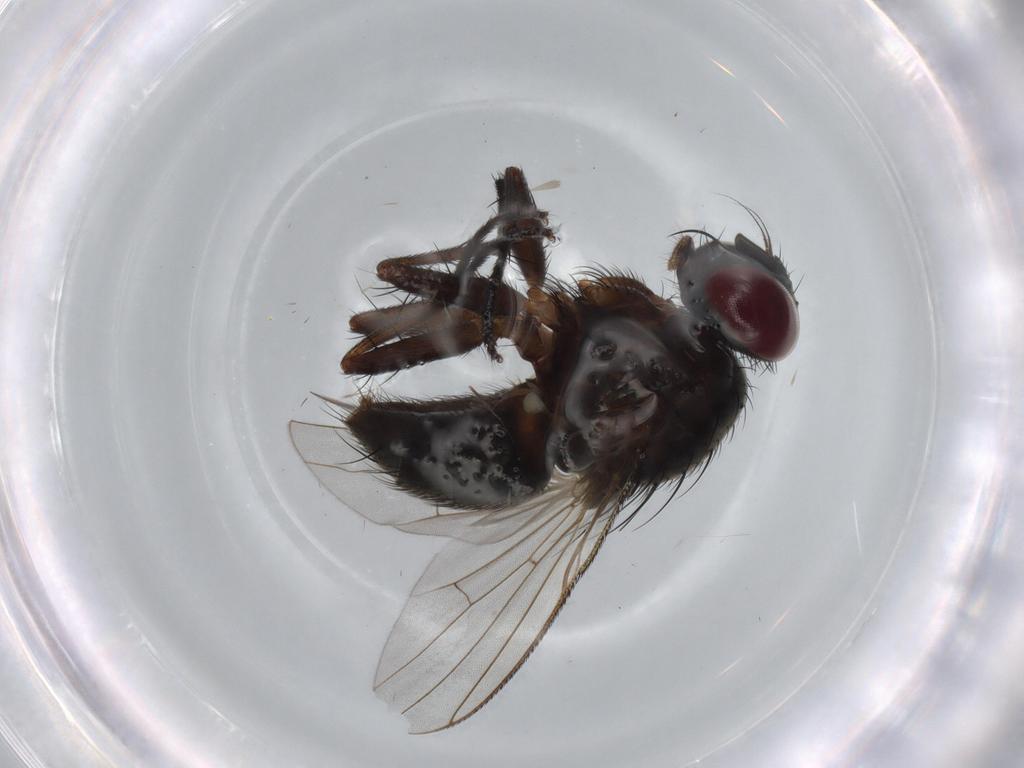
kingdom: Animalia
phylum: Arthropoda
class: Insecta
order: Diptera
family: Muscidae
